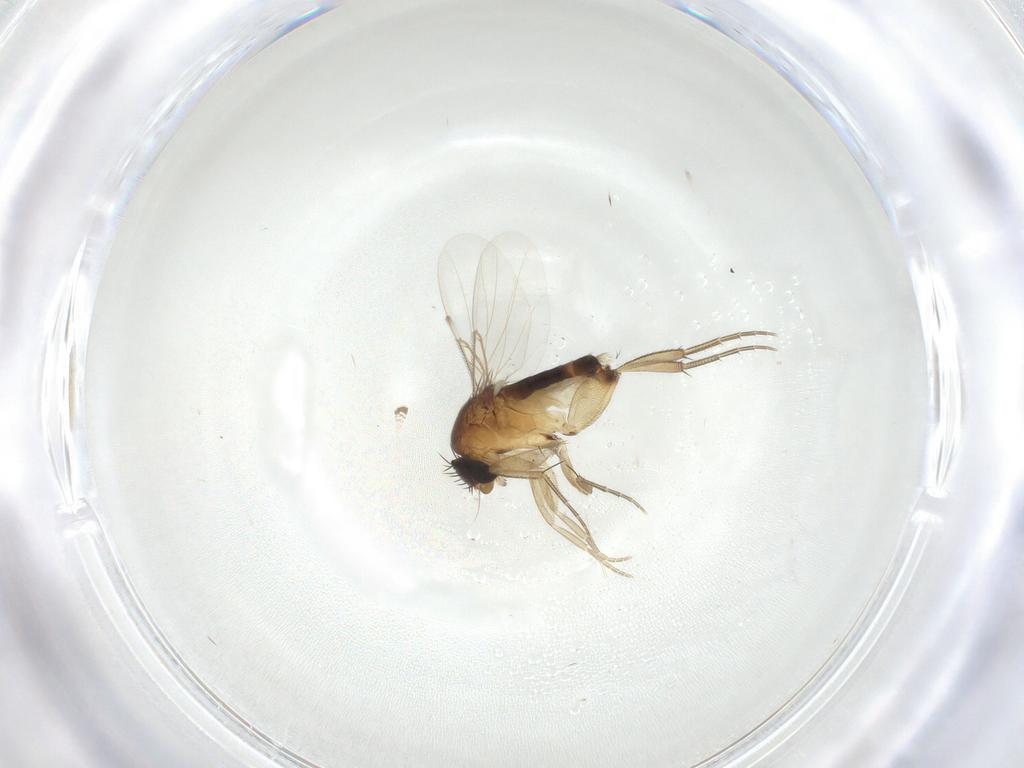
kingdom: Animalia
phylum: Arthropoda
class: Insecta
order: Diptera
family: Phoridae
